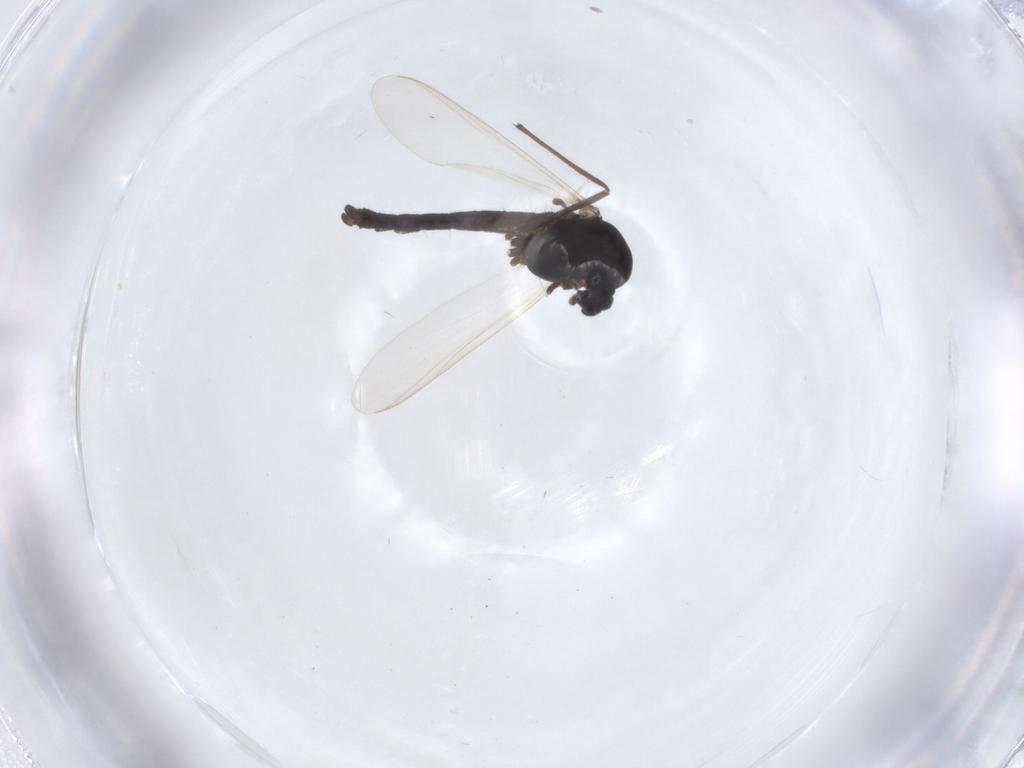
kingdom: Animalia
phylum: Arthropoda
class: Insecta
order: Diptera
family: Chironomidae
